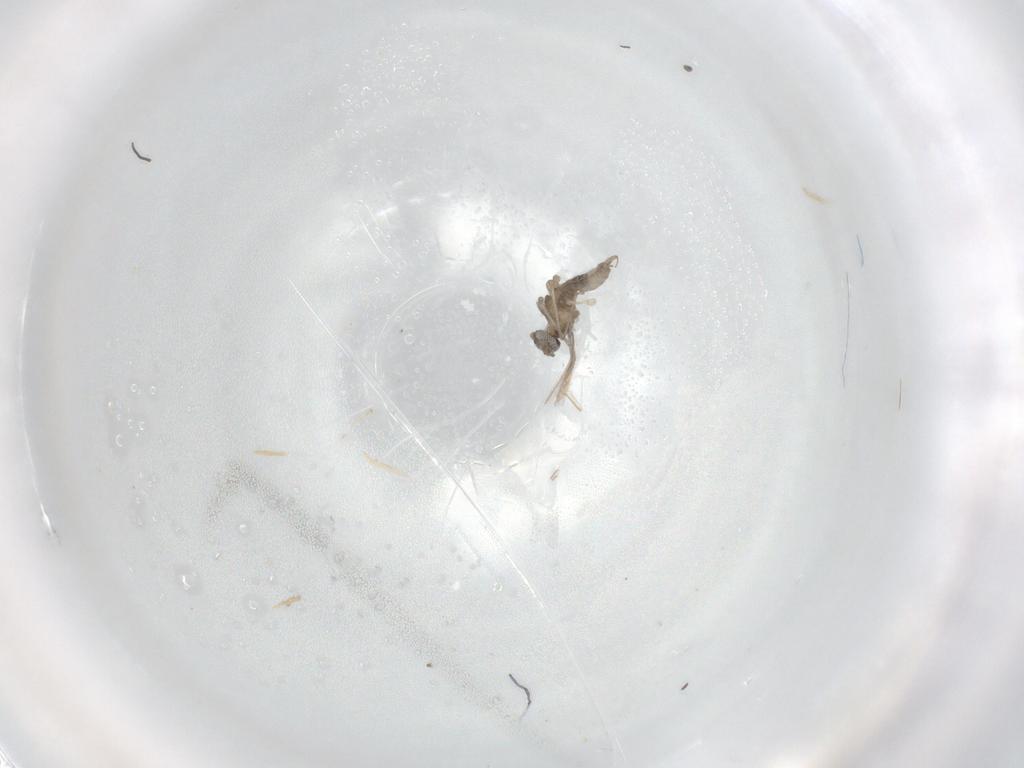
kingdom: Animalia
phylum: Arthropoda
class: Insecta
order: Diptera
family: Cecidomyiidae
